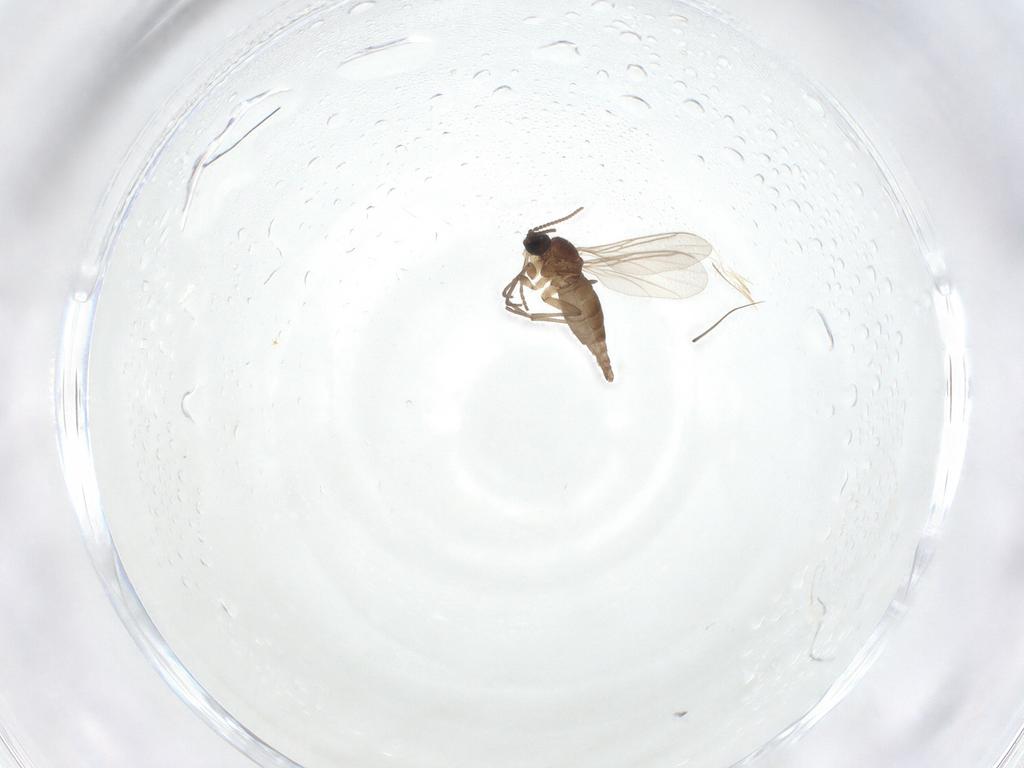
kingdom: Animalia
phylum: Arthropoda
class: Insecta
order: Diptera
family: Sciaridae
